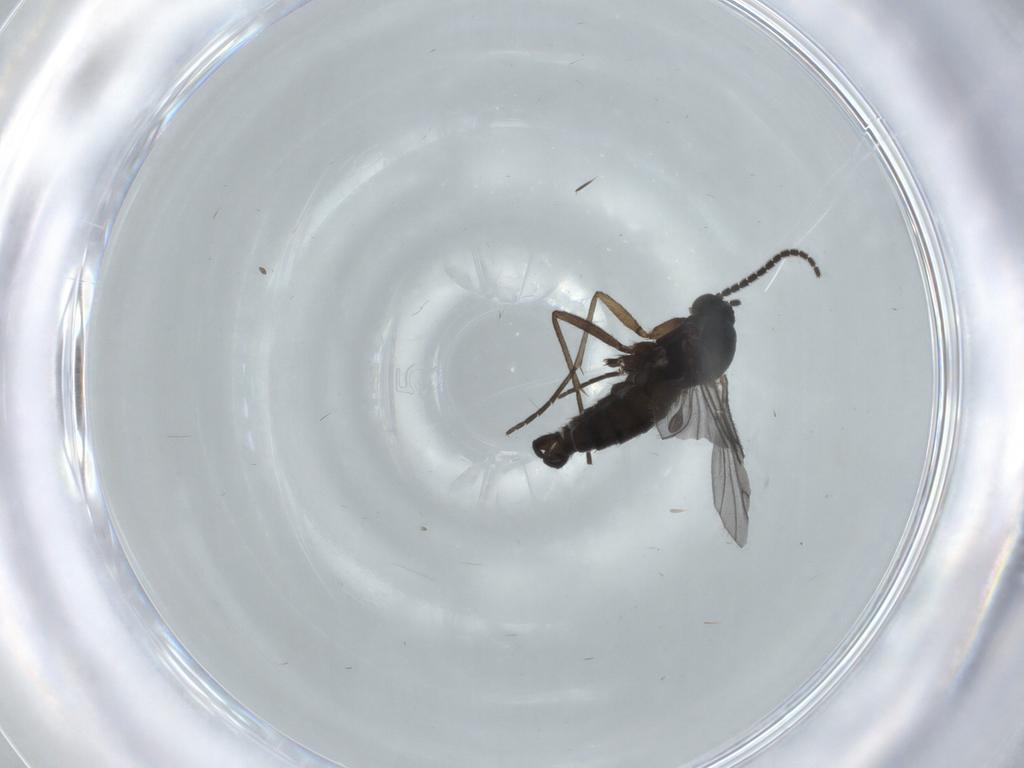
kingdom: Animalia
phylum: Arthropoda
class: Insecta
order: Diptera
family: Sciaridae
